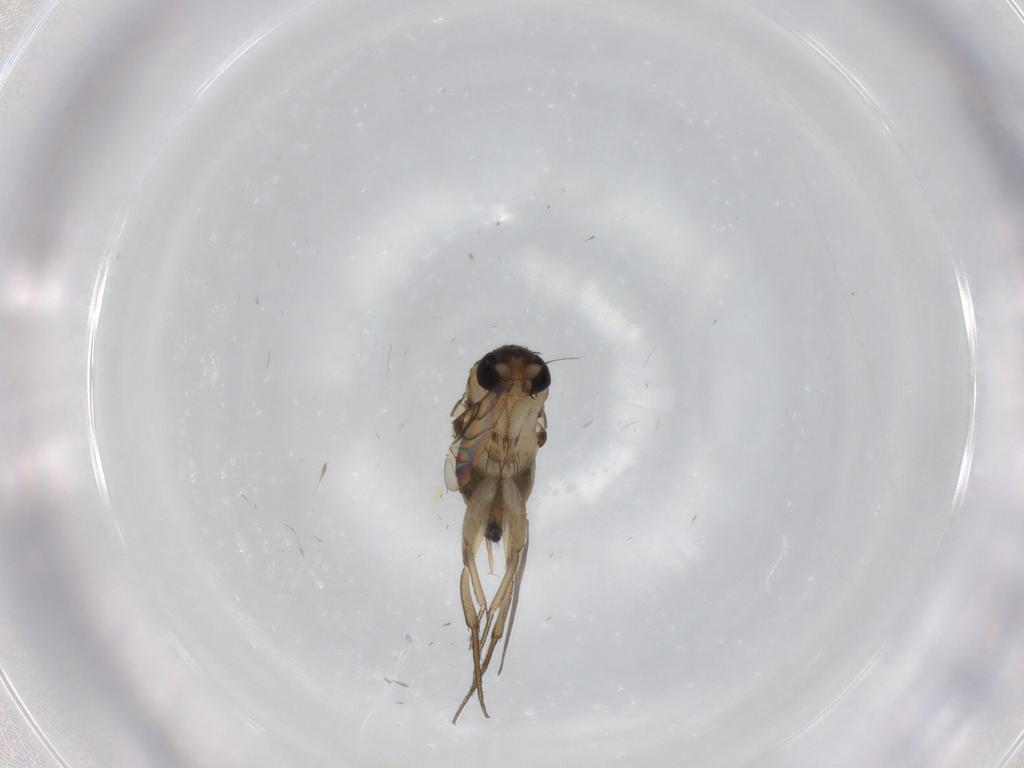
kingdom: Animalia
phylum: Arthropoda
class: Insecta
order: Diptera
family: Phoridae
